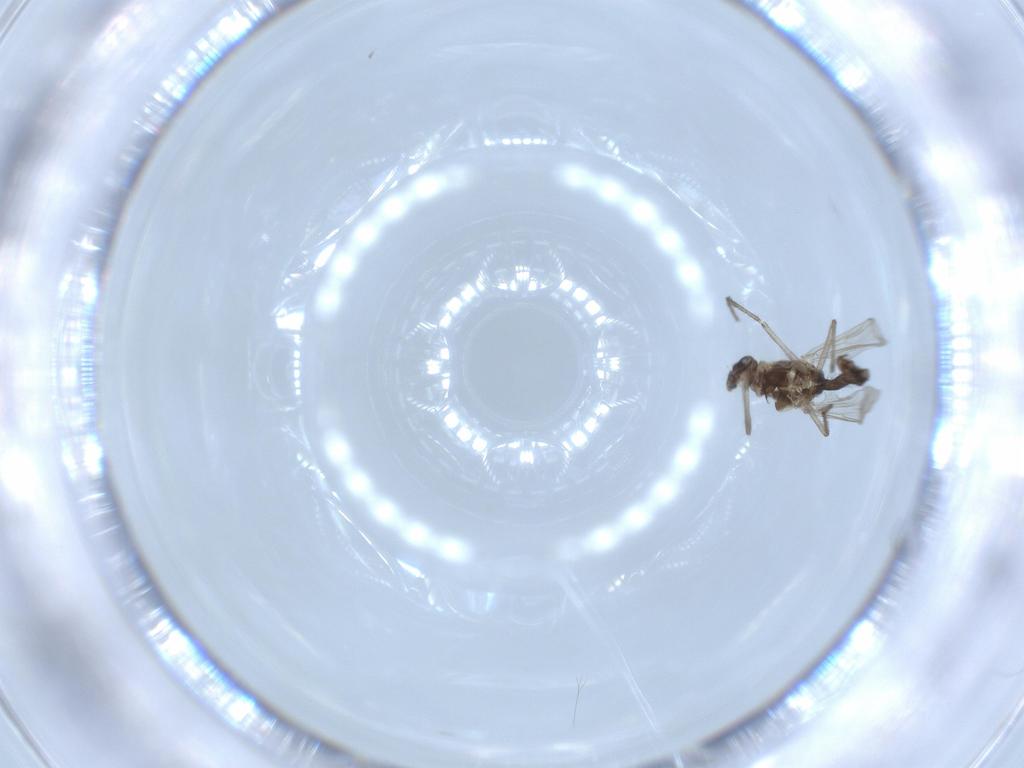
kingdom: Animalia
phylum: Arthropoda
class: Insecta
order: Diptera
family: Chironomidae
